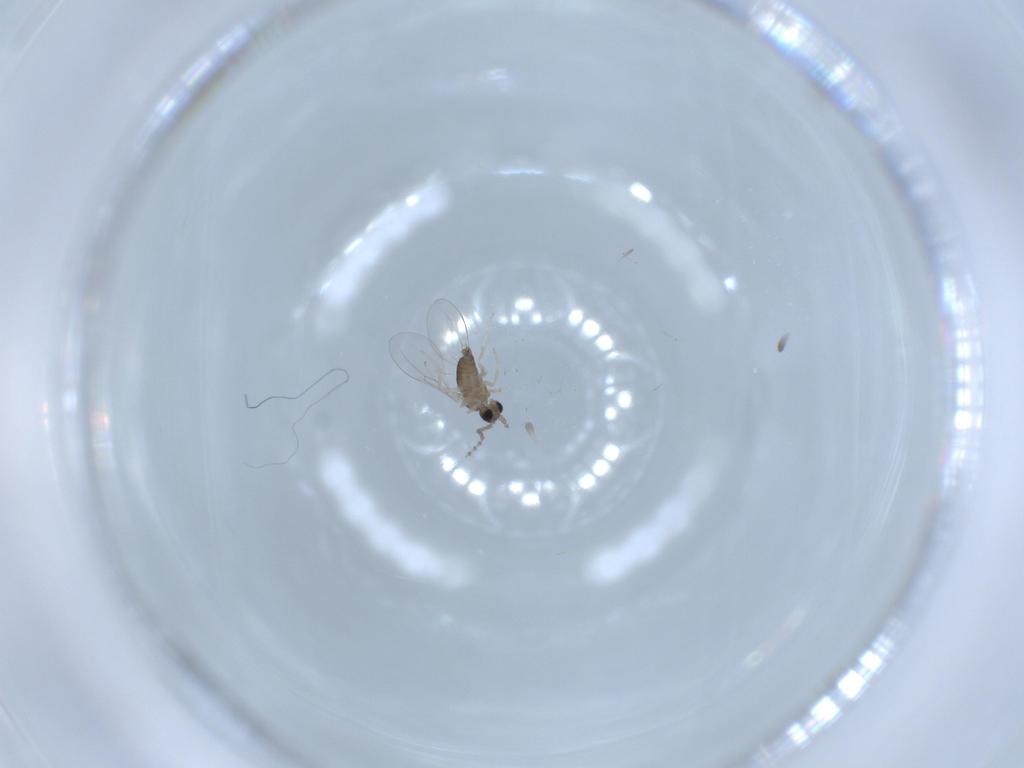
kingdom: Animalia
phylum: Arthropoda
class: Insecta
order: Diptera
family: Cecidomyiidae
